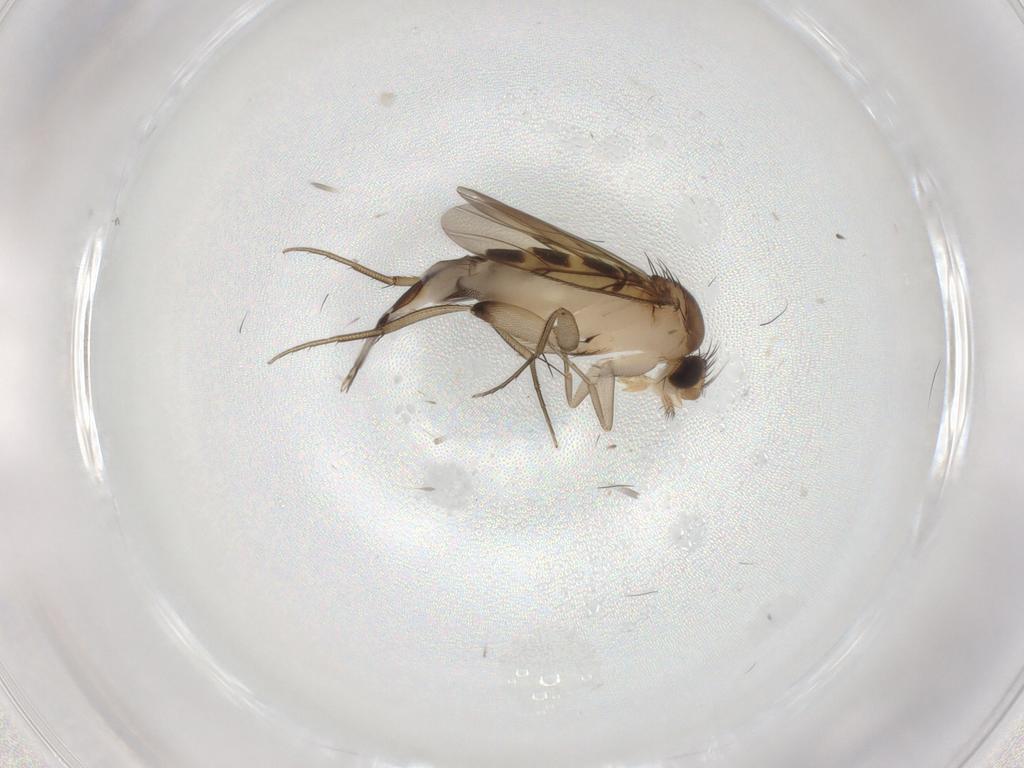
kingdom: Animalia
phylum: Arthropoda
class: Insecta
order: Diptera
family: Phoridae
